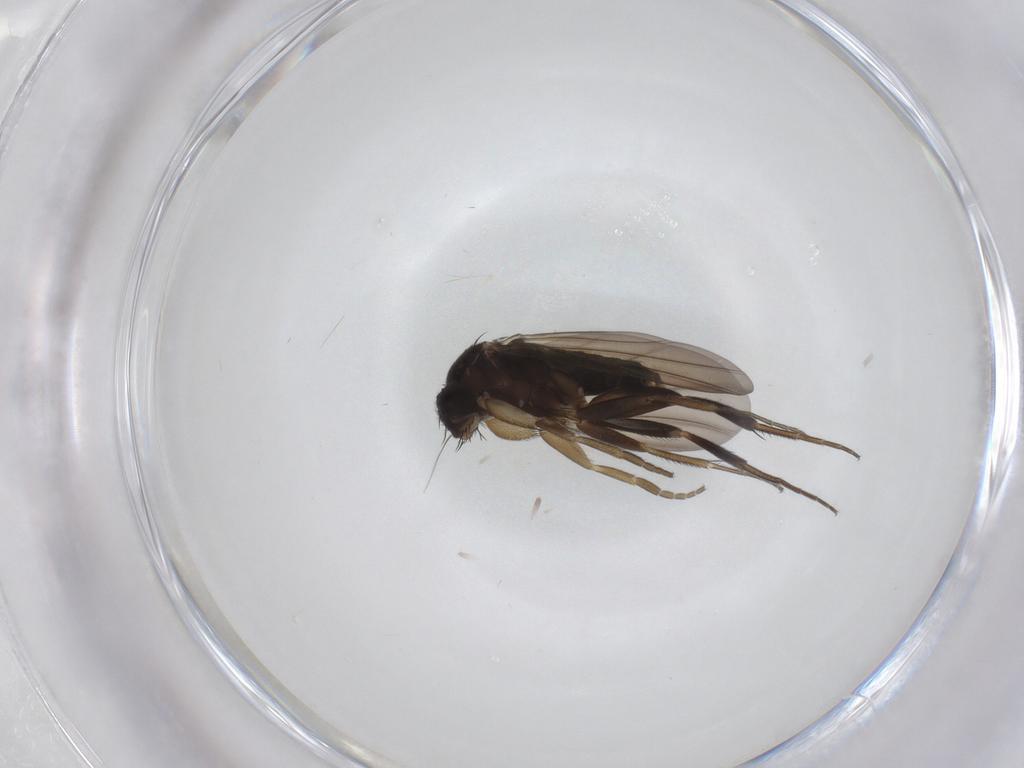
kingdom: Animalia
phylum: Arthropoda
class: Insecta
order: Diptera
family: Phoridae
